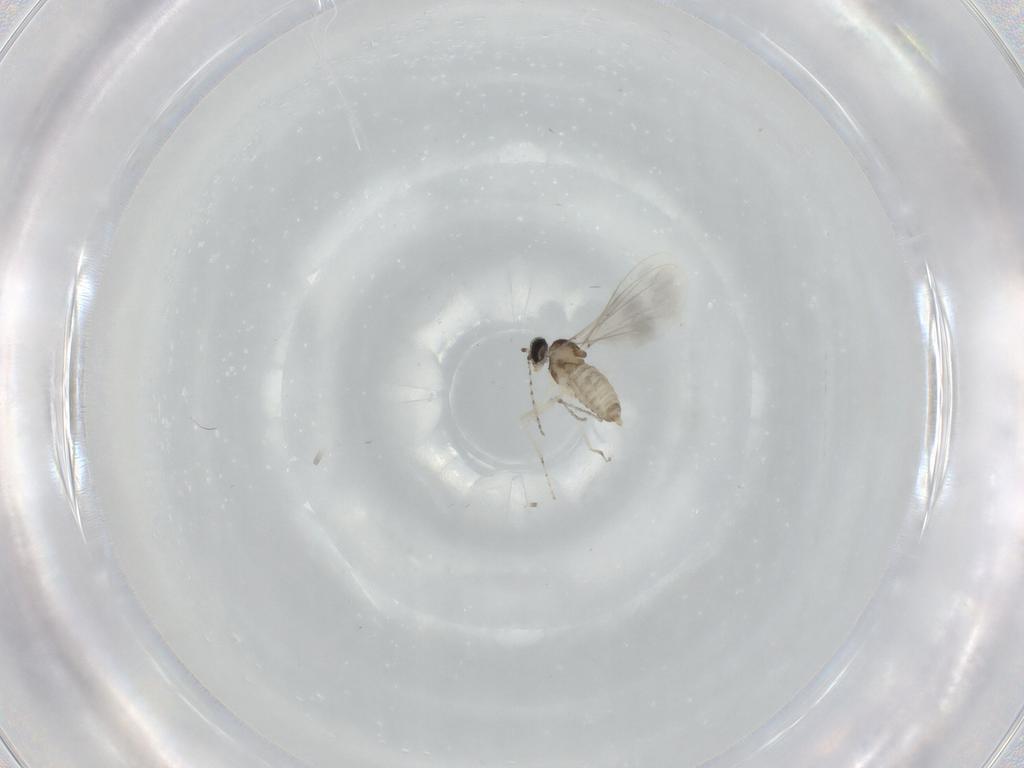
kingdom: Animalia
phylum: Arthropoda
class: Insecta
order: Diptera
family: Cecidomyiidae
